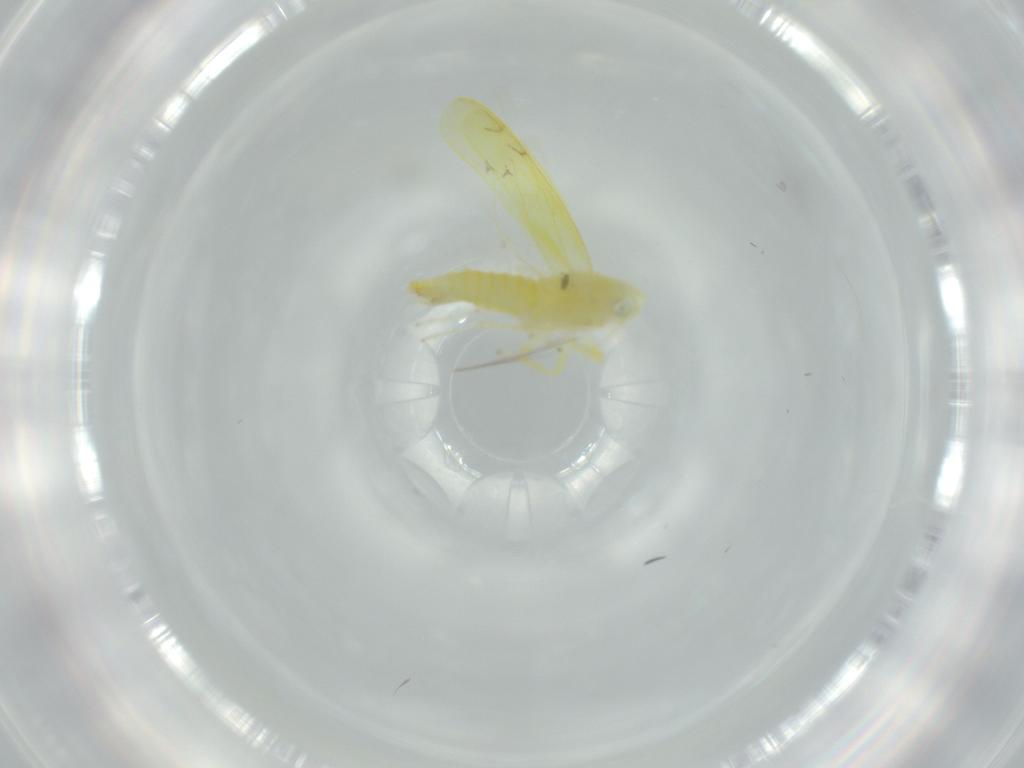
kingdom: Animalia
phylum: Arthropoda
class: Insecta
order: Hemiptera
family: Cicadellidae
